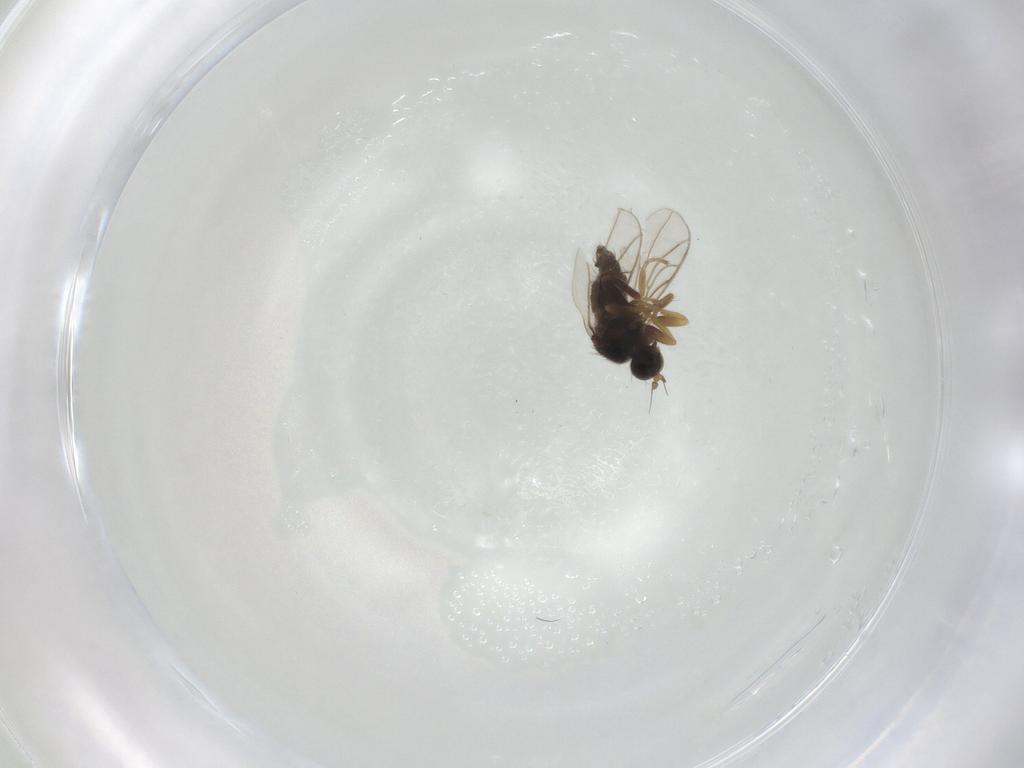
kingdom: Animalia
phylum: Arthropoda
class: Insecta
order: Diptera
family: Hybotidae
